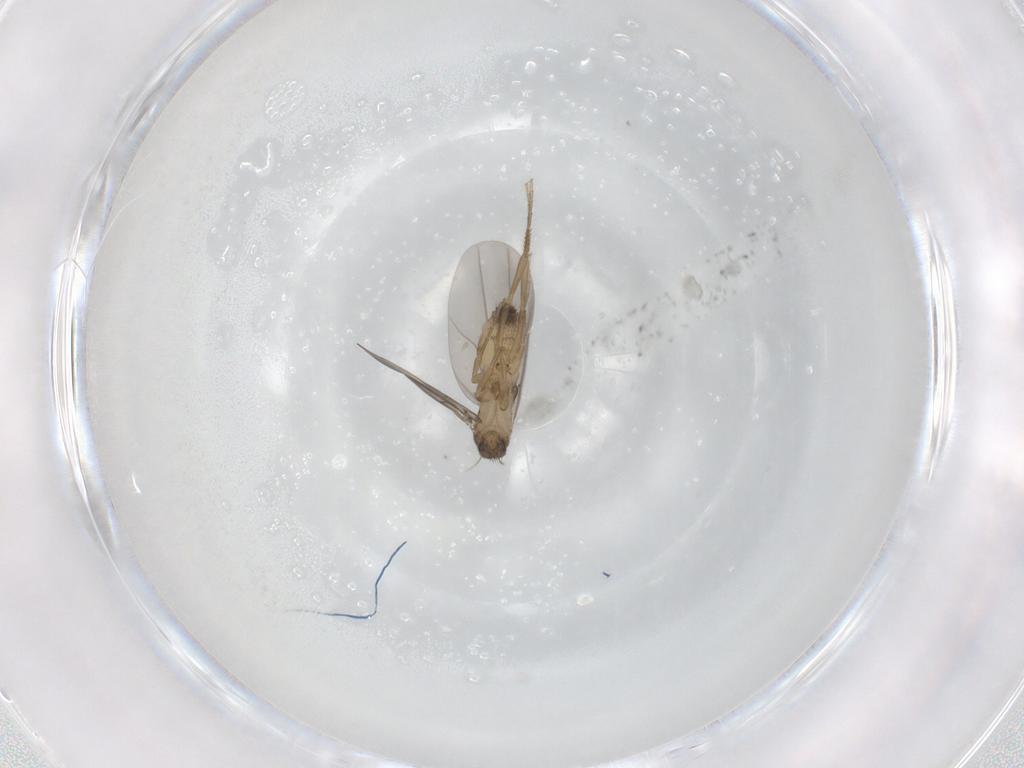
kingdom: Animalia
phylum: Arthropoda
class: Insecta
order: Diptera
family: Phoridae
